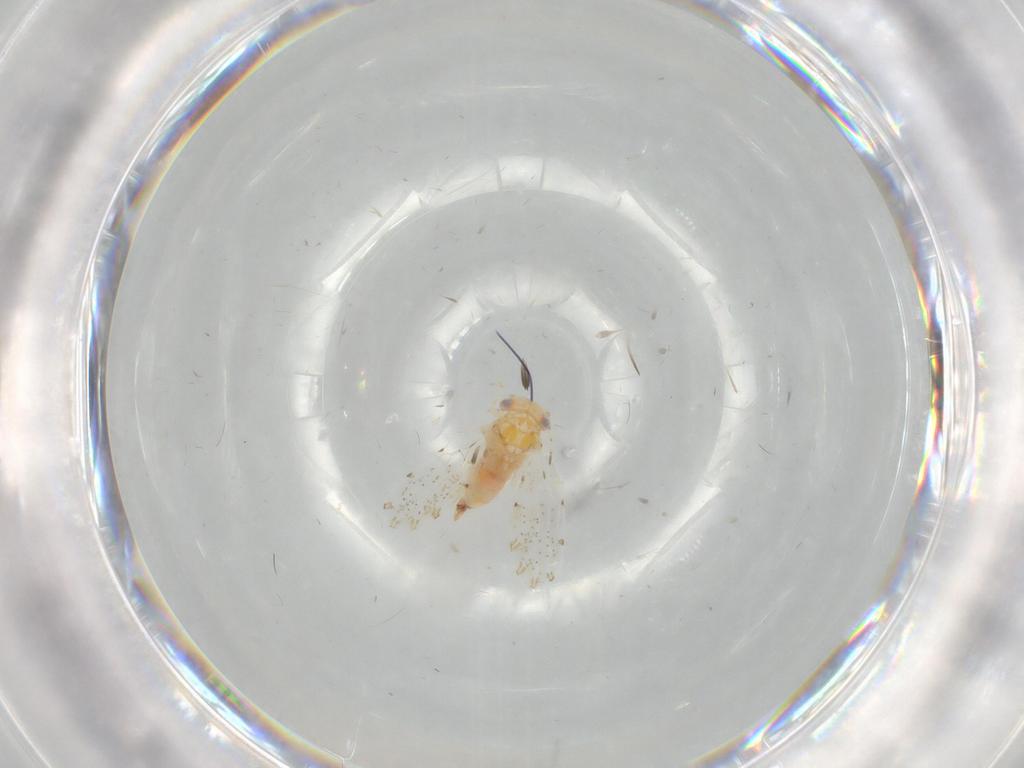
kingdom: Animalia
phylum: Arthropoda
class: Insecta
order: Hemiptera
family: Rhyparochromidae
